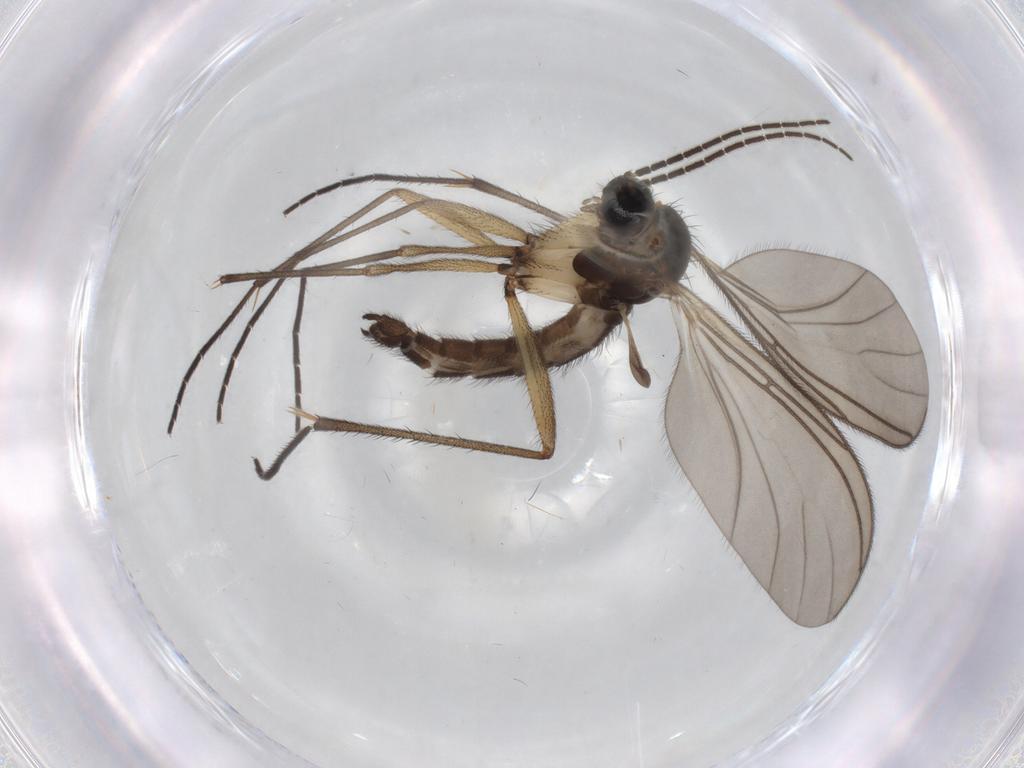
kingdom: Animalia
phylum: Arthropoda
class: Insecta
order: Diptera
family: Sciaridae
